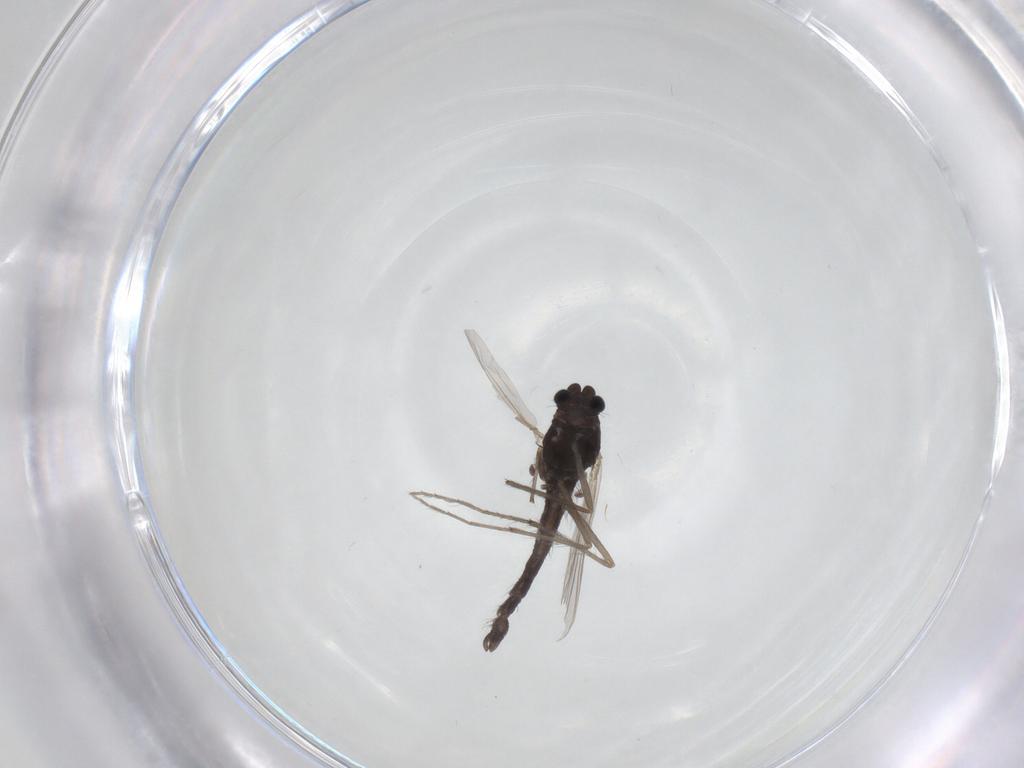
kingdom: Animalia
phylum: Arthropoda
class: Insecta
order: Diptera
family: Chironomidae
